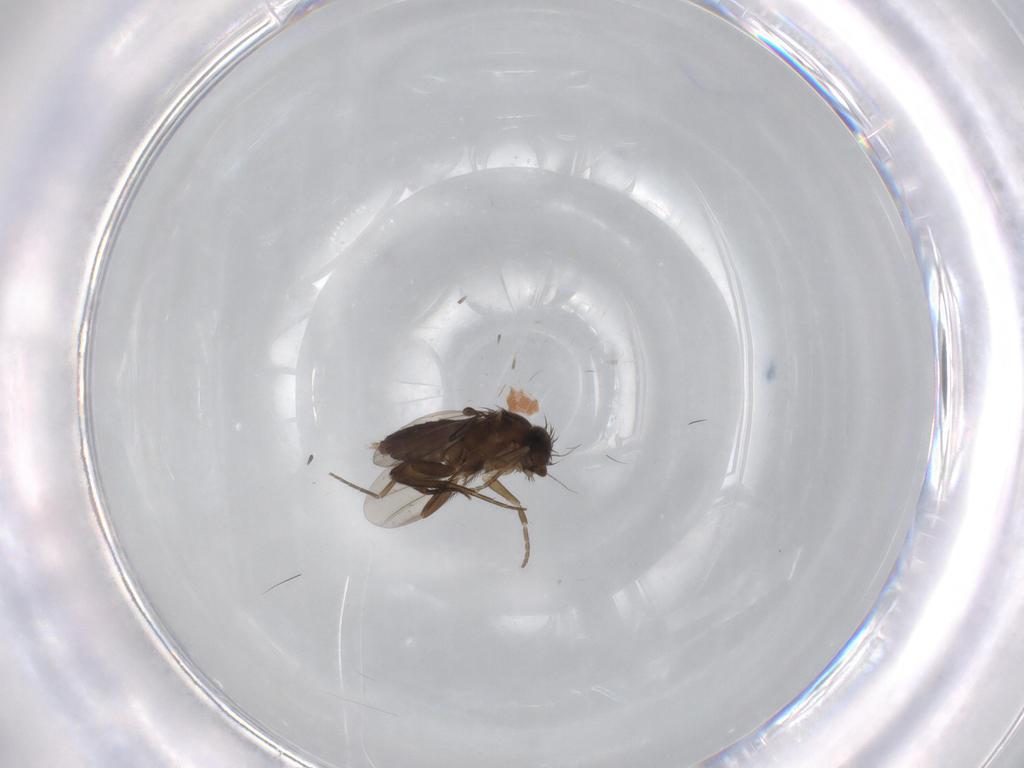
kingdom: Animalia
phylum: Arthropoda
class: Insecta
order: Diptera
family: Phoridae
